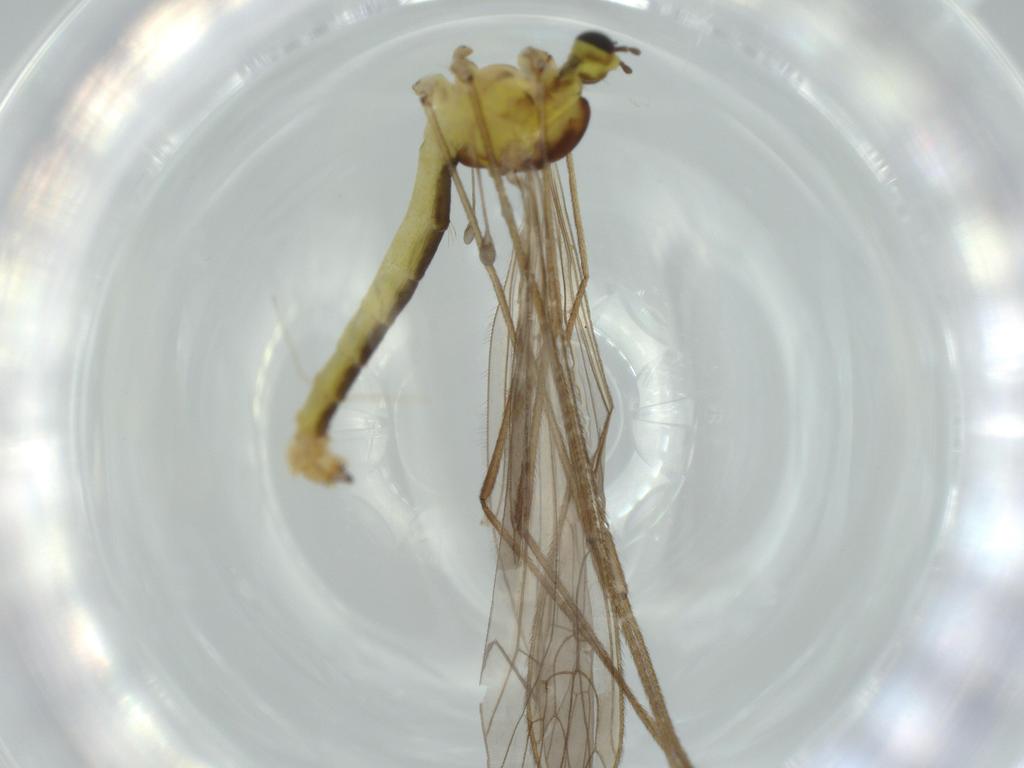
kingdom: Animalia
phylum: Arthropoda
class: Insecta
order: Diptera
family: Limoniidae
